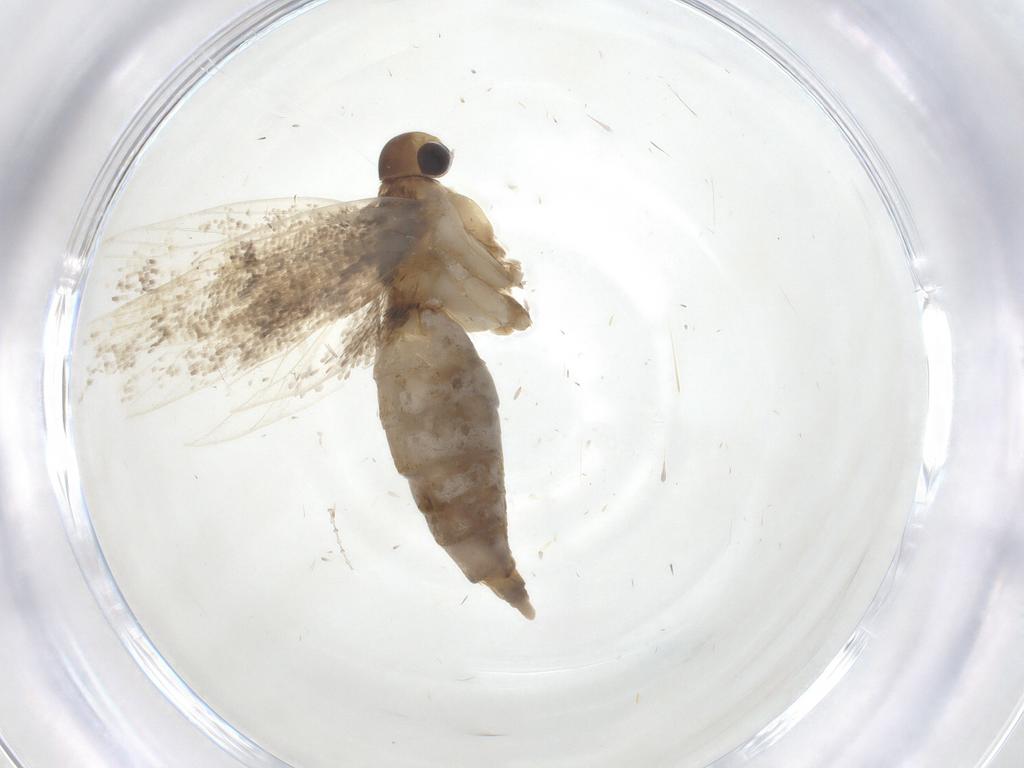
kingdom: Animalia
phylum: Arthropoda
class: Insecta
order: Lepidoptera
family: Lecithoceridae
